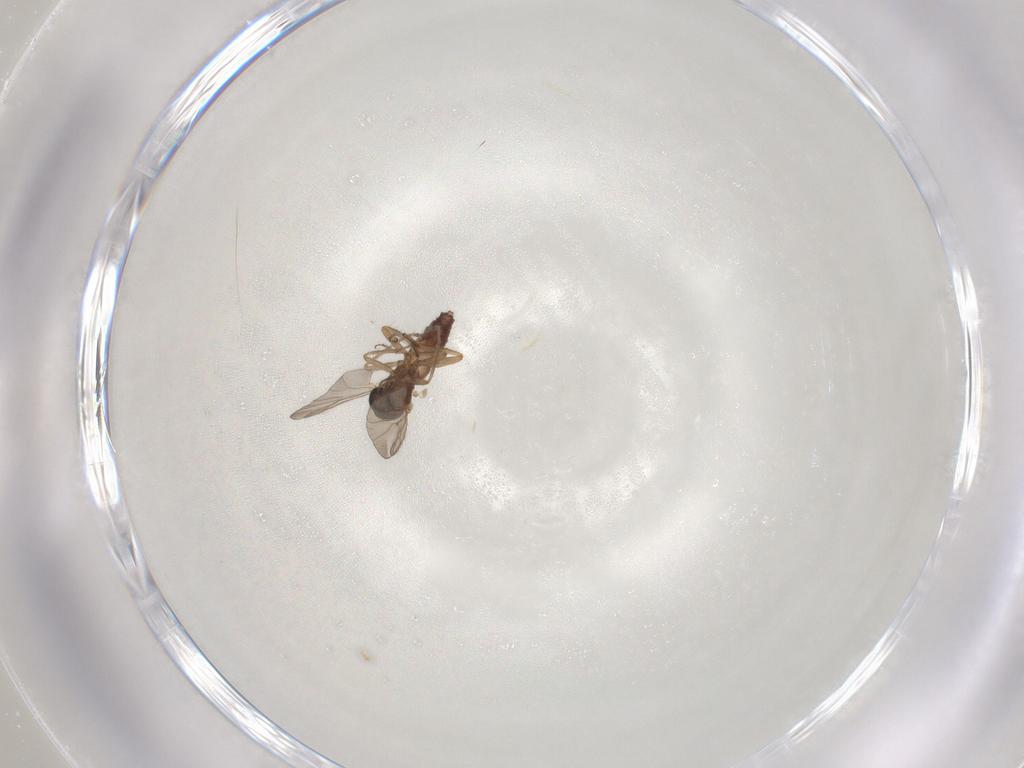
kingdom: Animalia
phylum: Arthropoda
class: Insecta
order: Diptera
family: Ceratopogonidae
